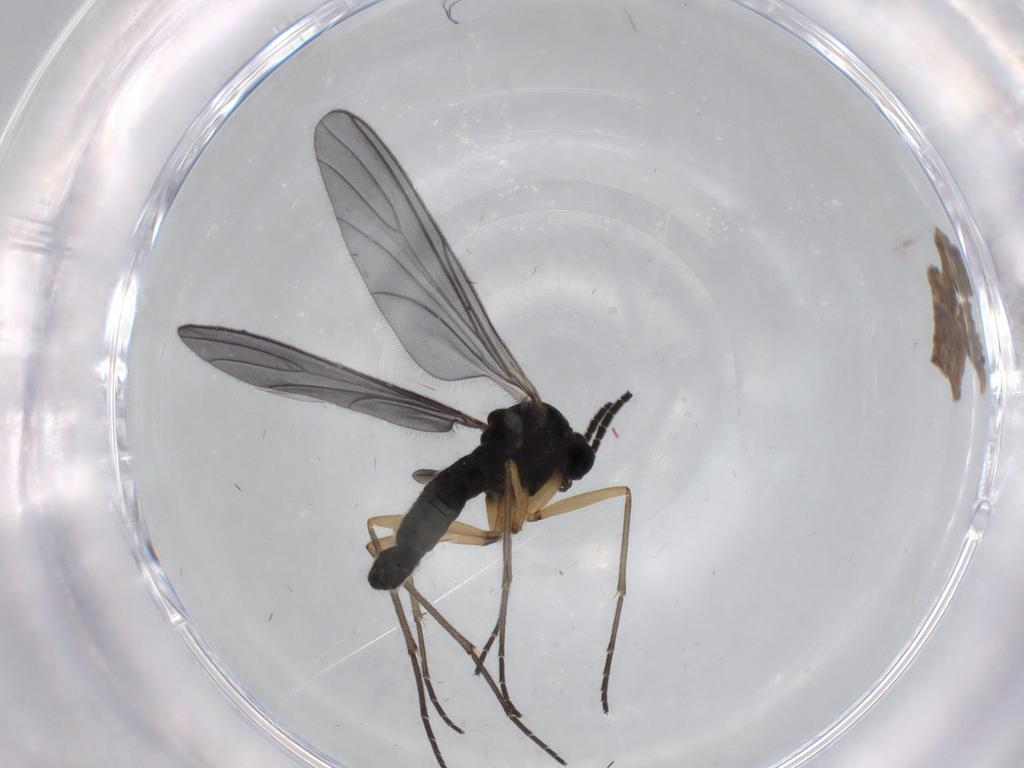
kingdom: Animalia
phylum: Arthropoda
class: Insecta
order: Diptera
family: Sciaridae
